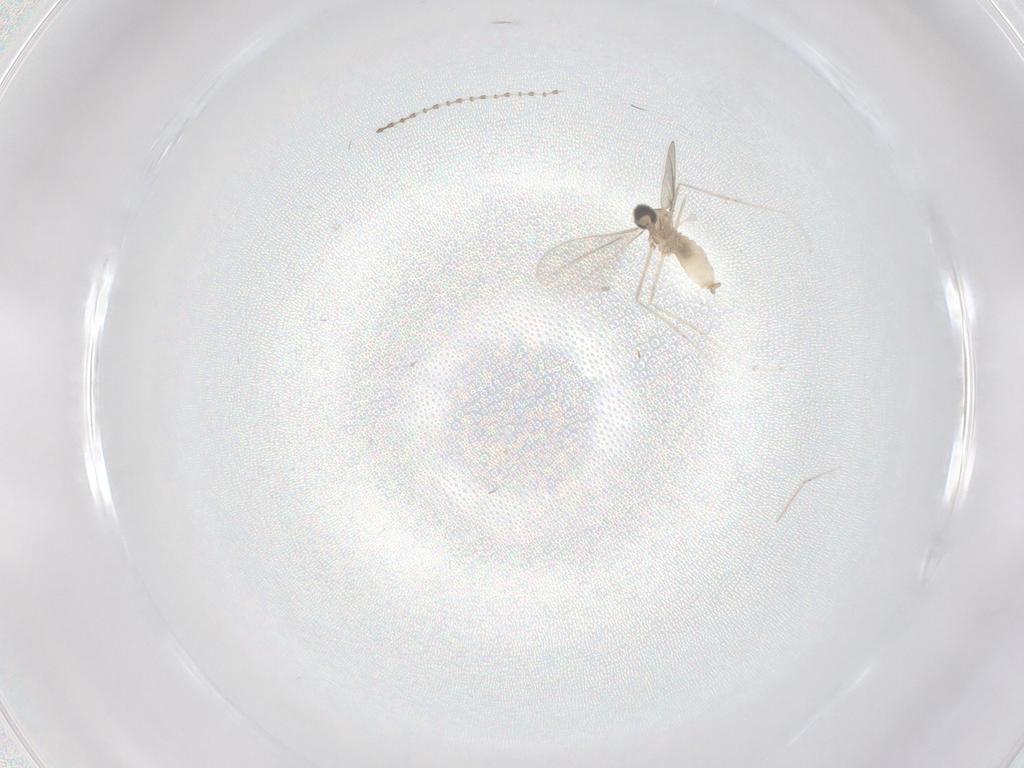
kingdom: Animalia
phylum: Arthropoda
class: Insecta
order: Diptera
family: Cecidomyiidae
